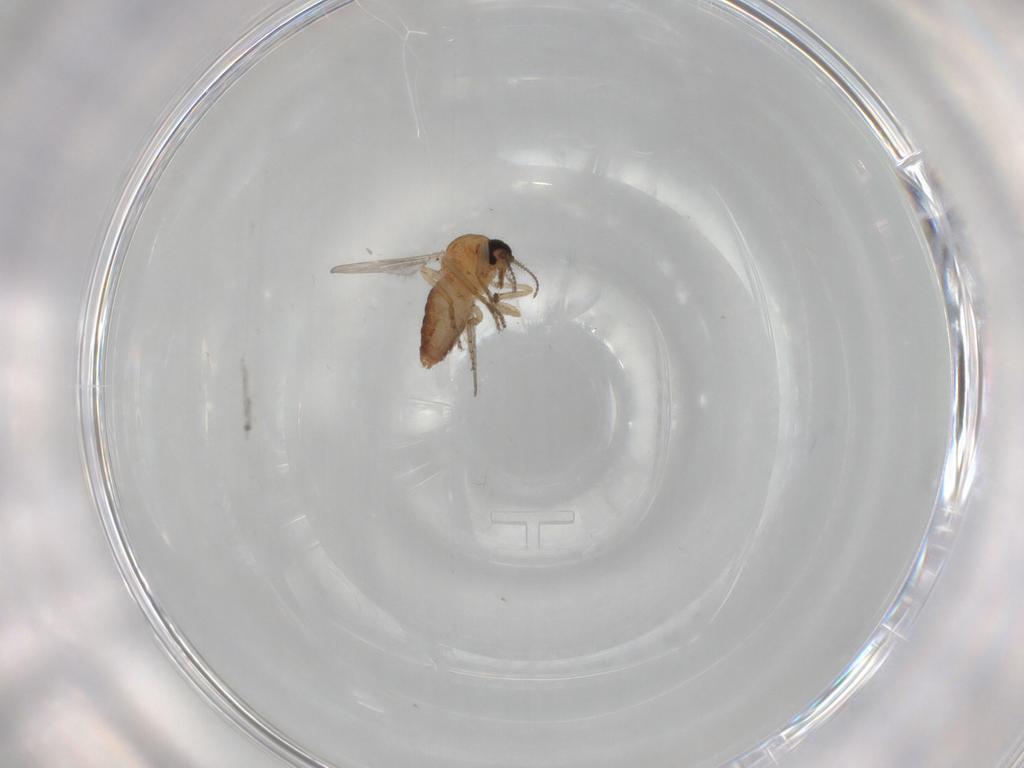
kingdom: Animalia
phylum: Arthropoda
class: Insecta
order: Diptera
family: Ceratopogonidae
